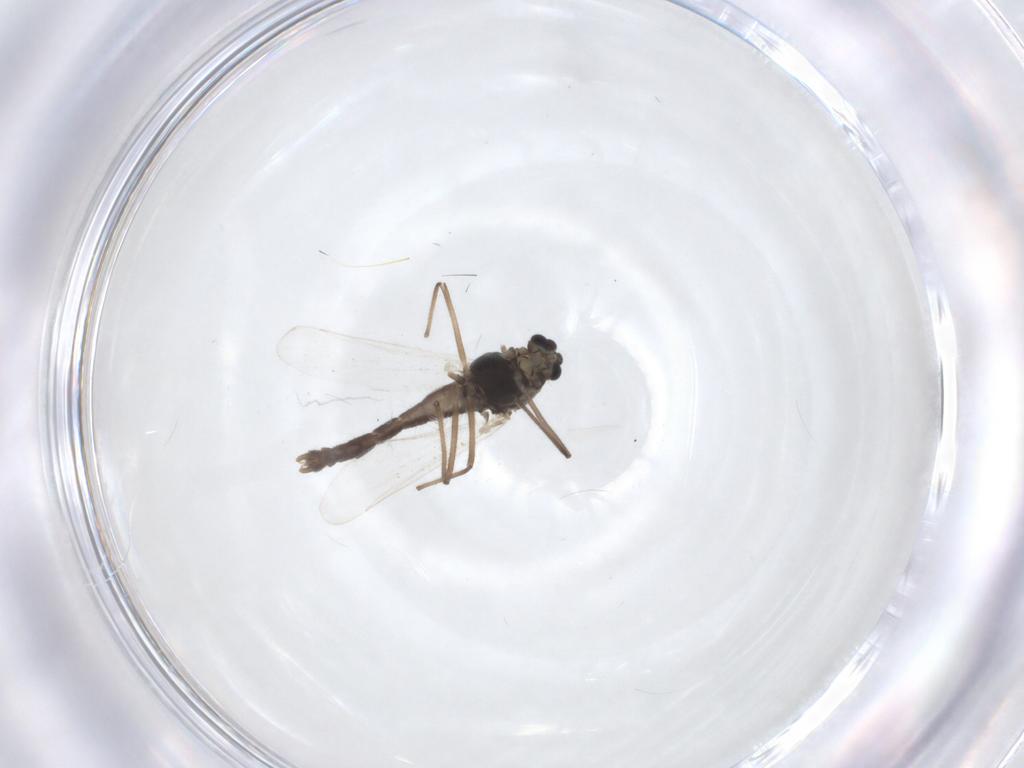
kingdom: Animalia
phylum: Arthropoda
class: Insecta
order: Diptera
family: Chironomidae
